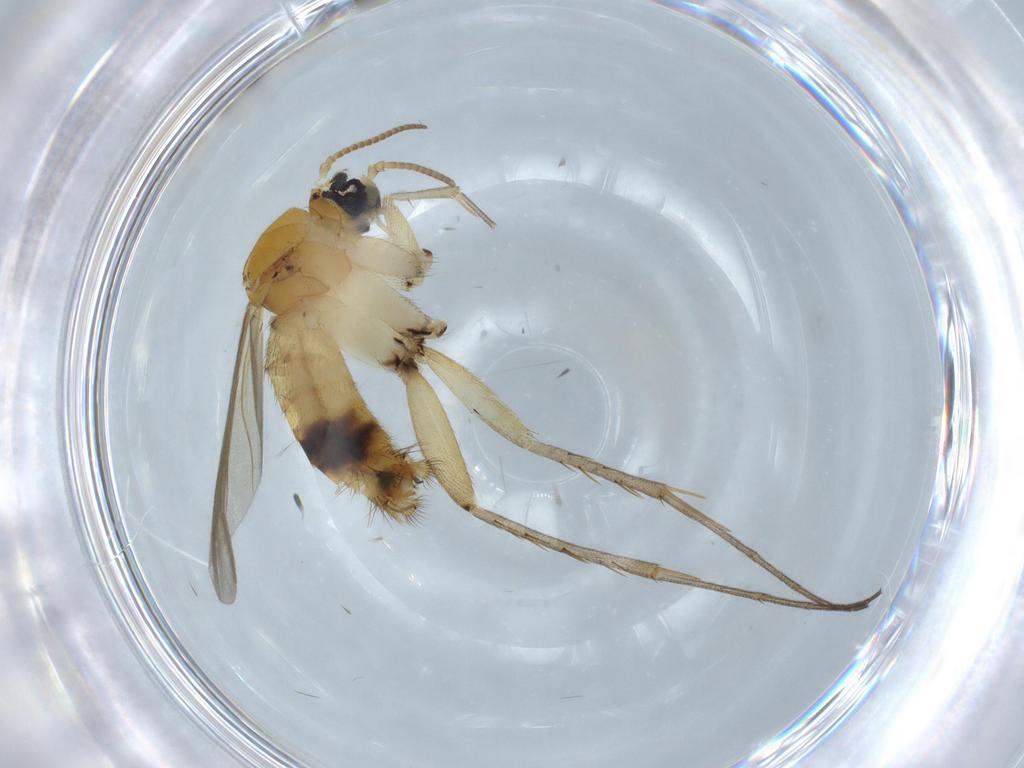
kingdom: Animalia
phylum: Arthropoda
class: Insecta
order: Diptera
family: Mycetophilidae
